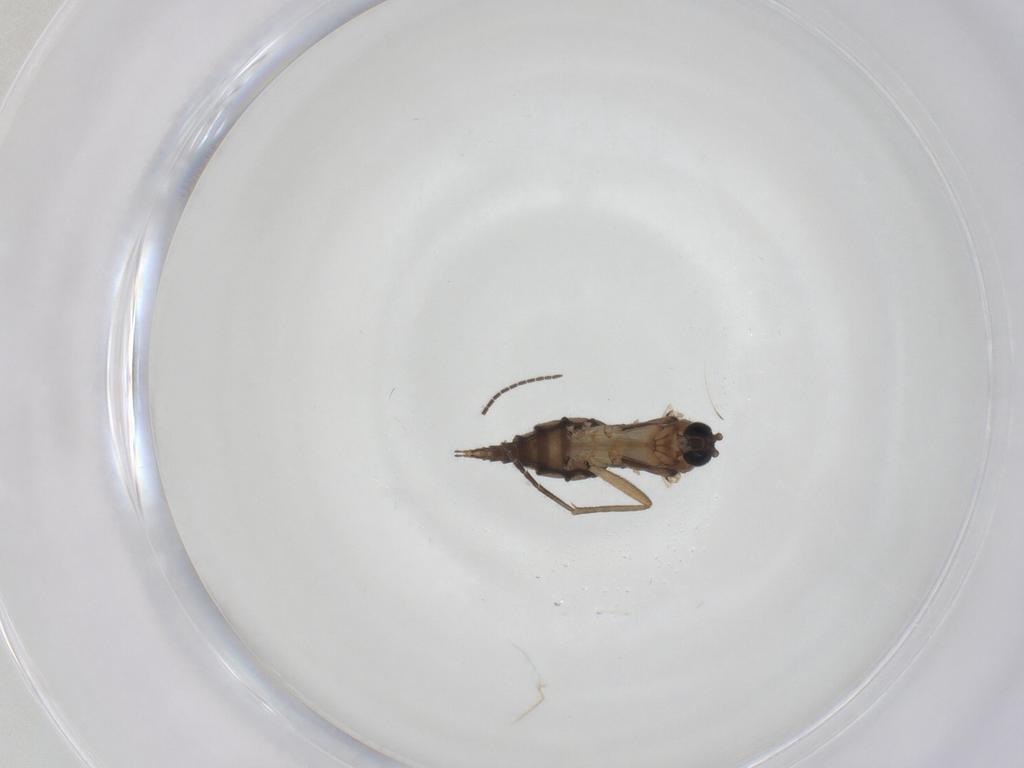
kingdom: Animalia
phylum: Arthropoda
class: Insecta
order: Diptera
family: Sciaridae
